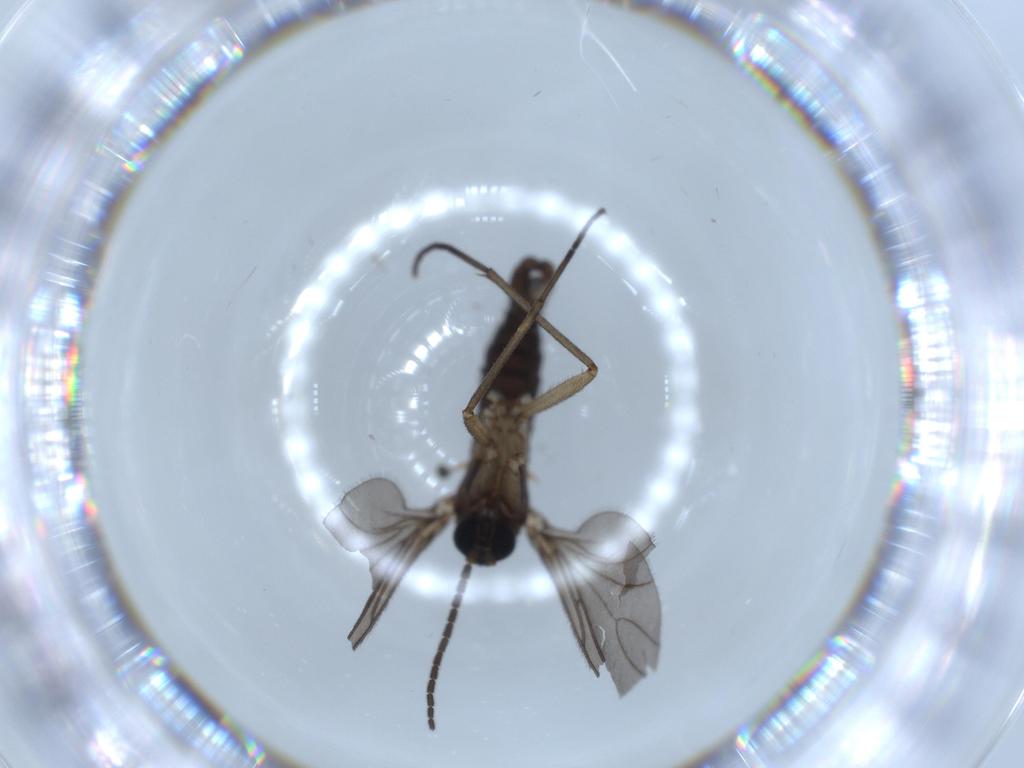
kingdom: Animalia
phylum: Arthropoda
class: Insecta
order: Diptera
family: Sciaridae
